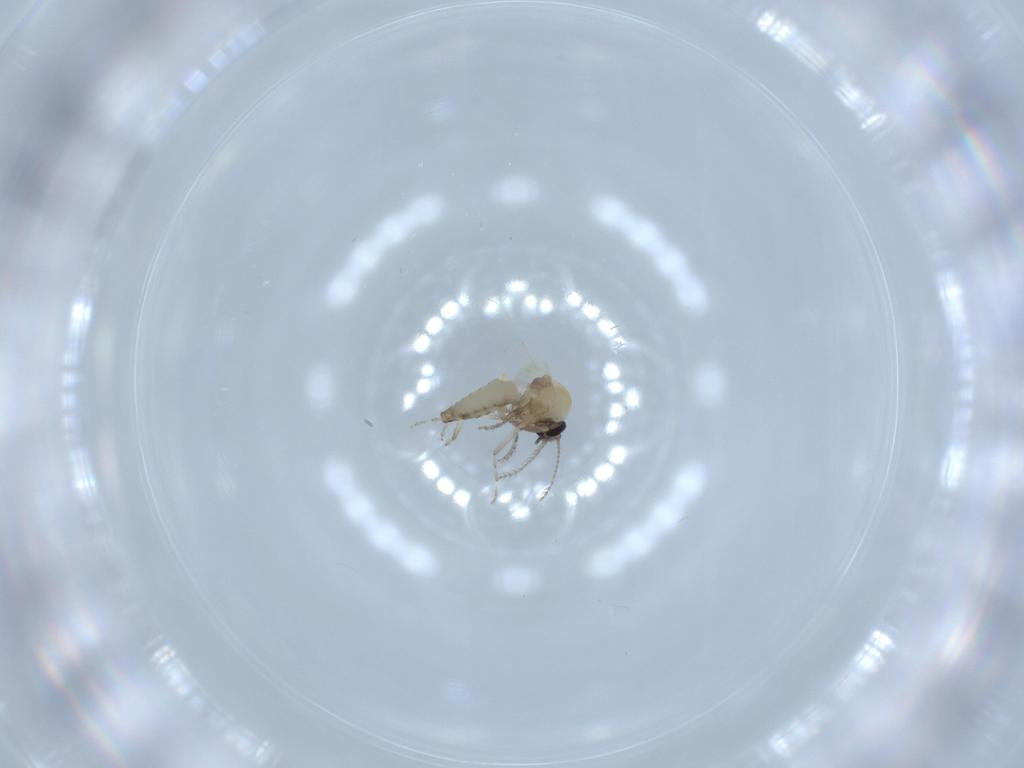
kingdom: Animalia
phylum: Arthropoda
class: Insecta
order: Diptera
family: Ceratopogonidae
